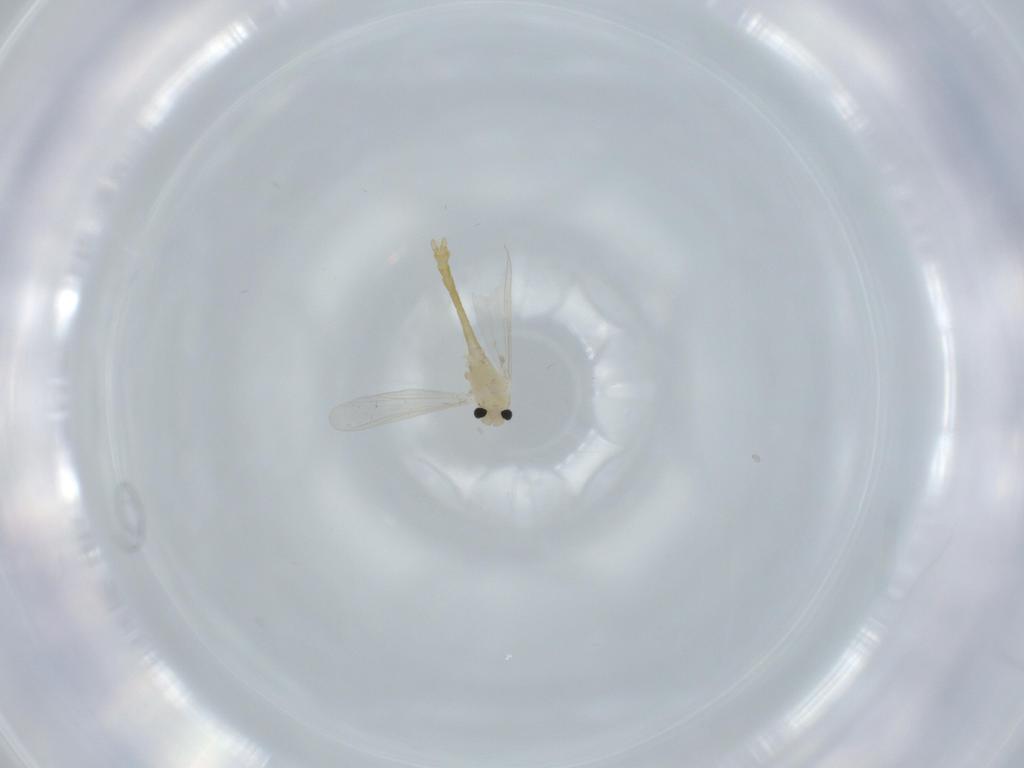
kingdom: Animalia
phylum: Arthropoda
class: Insecta
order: Diptera
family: Chironomidae
